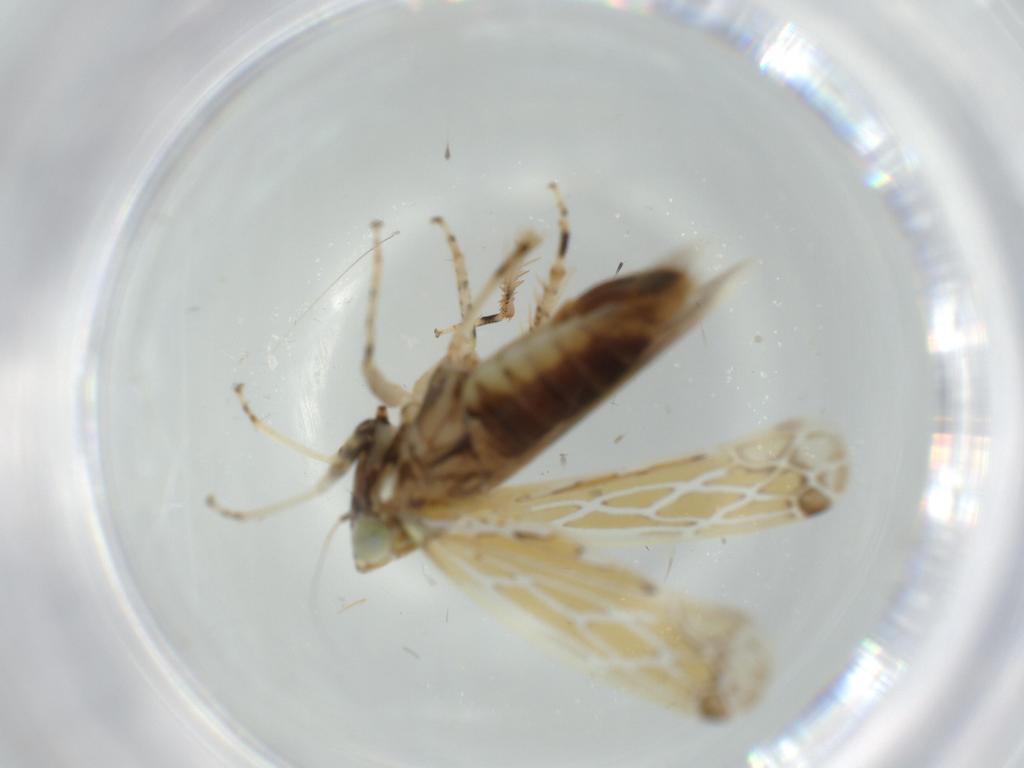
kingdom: Animalia
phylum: Arthropoda
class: Insecta
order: Hemiptera
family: Cicadellidae
